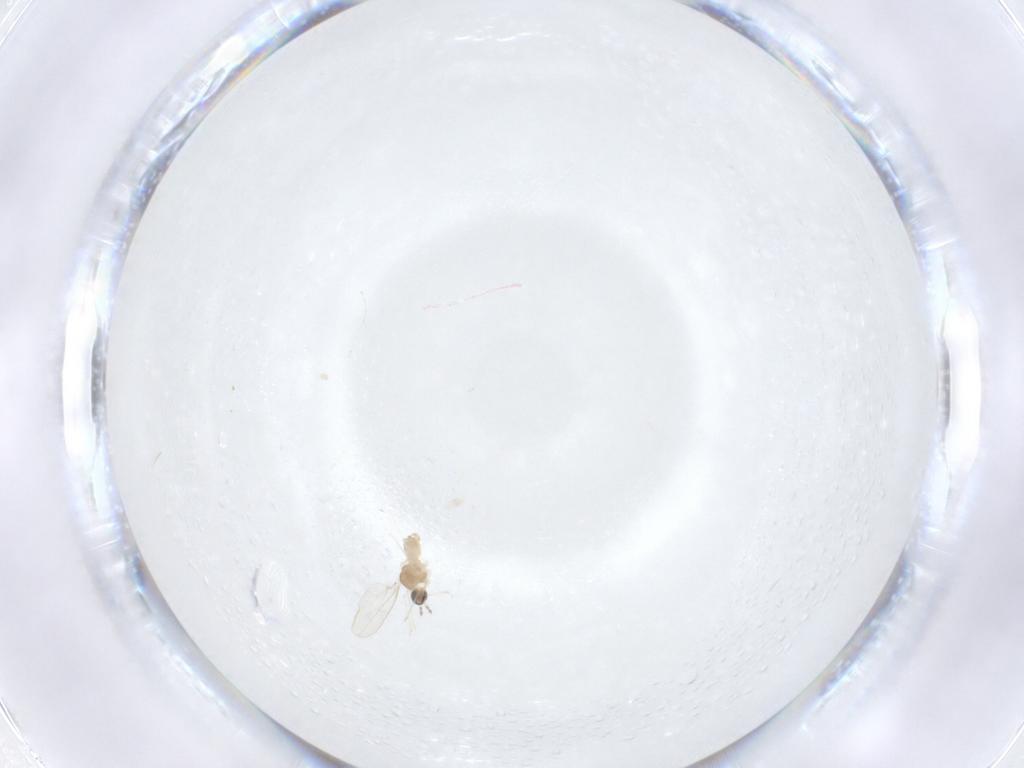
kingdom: Animalia
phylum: Arthropoda
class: Insecta
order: Diptera
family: Cecidomyiidae
